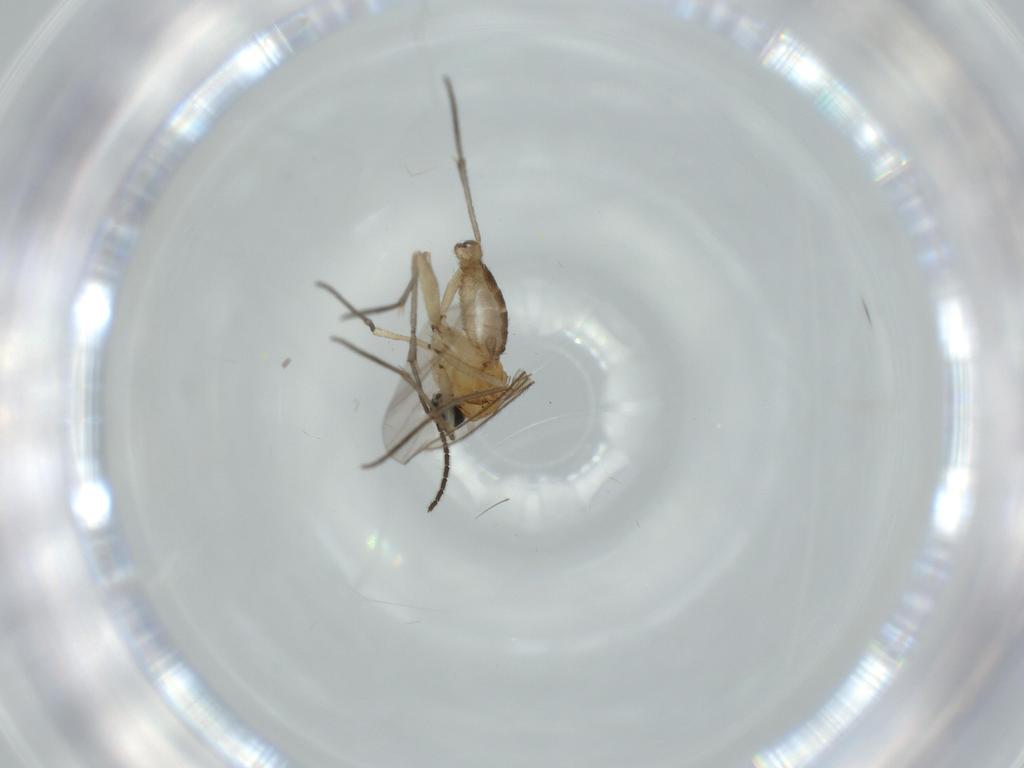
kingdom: Animalia
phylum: Arthropoda
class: Insecta
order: Diptera
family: Sciaridae
